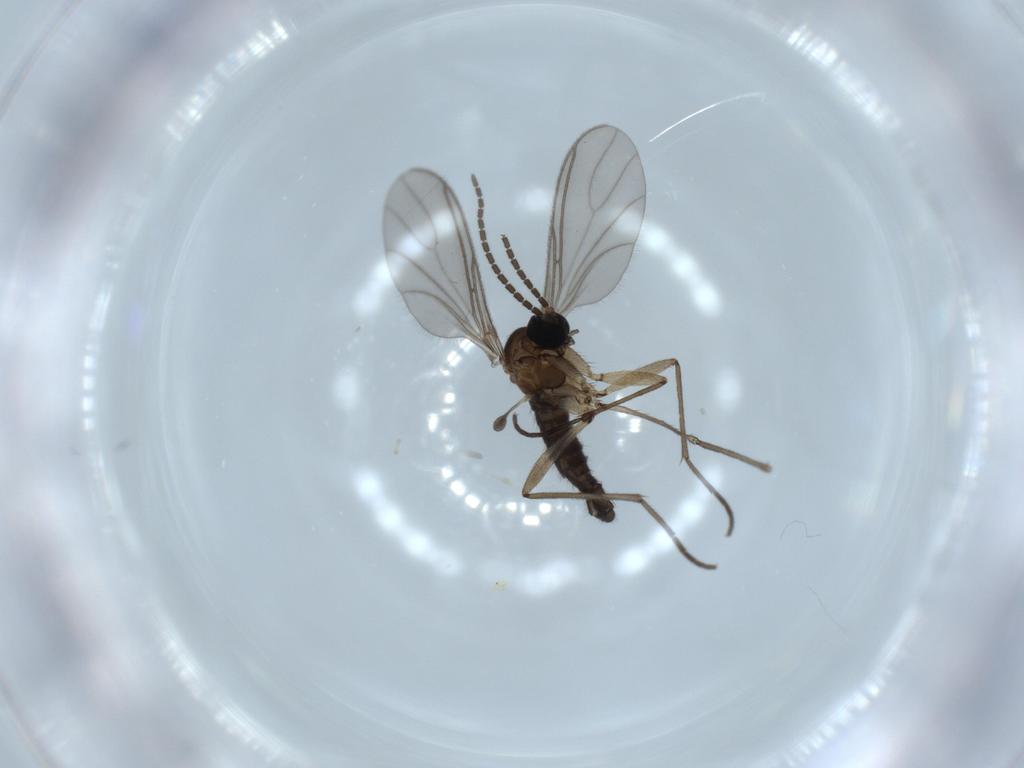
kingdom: Animalia
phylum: Arthropoda
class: Insecta
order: Diptera
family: Sciaridae
